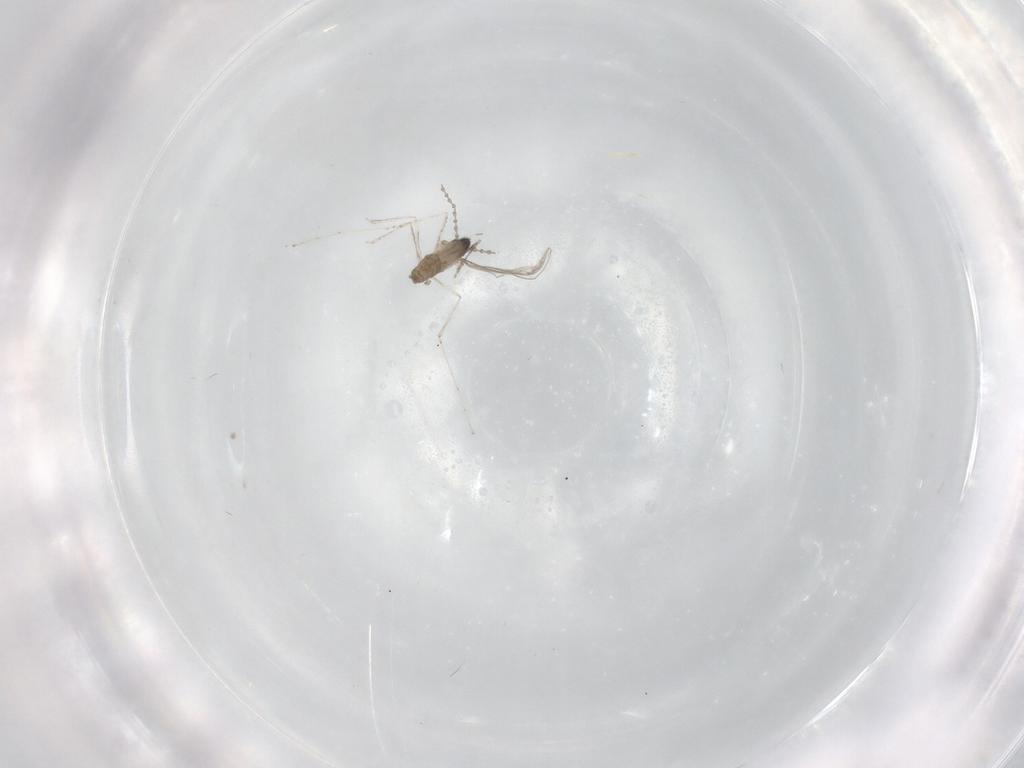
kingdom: Animalia
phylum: Arthropoda
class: Insecta
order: Diptera
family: Cecidomyiidae
